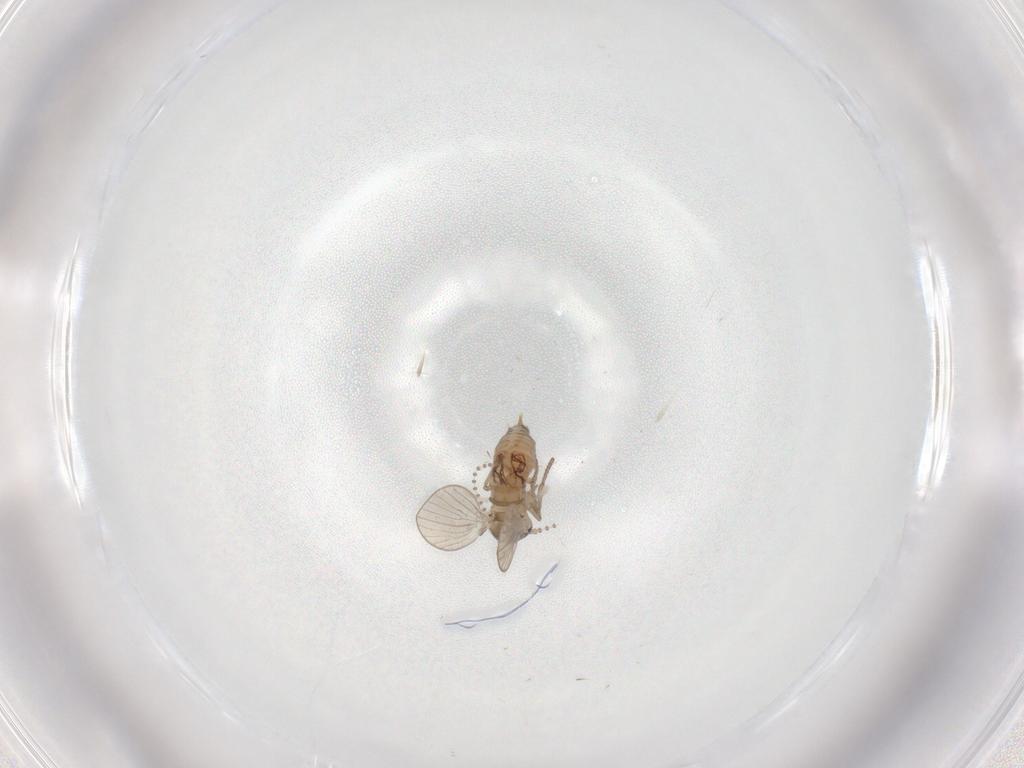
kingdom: Animalia
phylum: Arthropoda
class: Insecta
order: Diptera
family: Psychodidae
